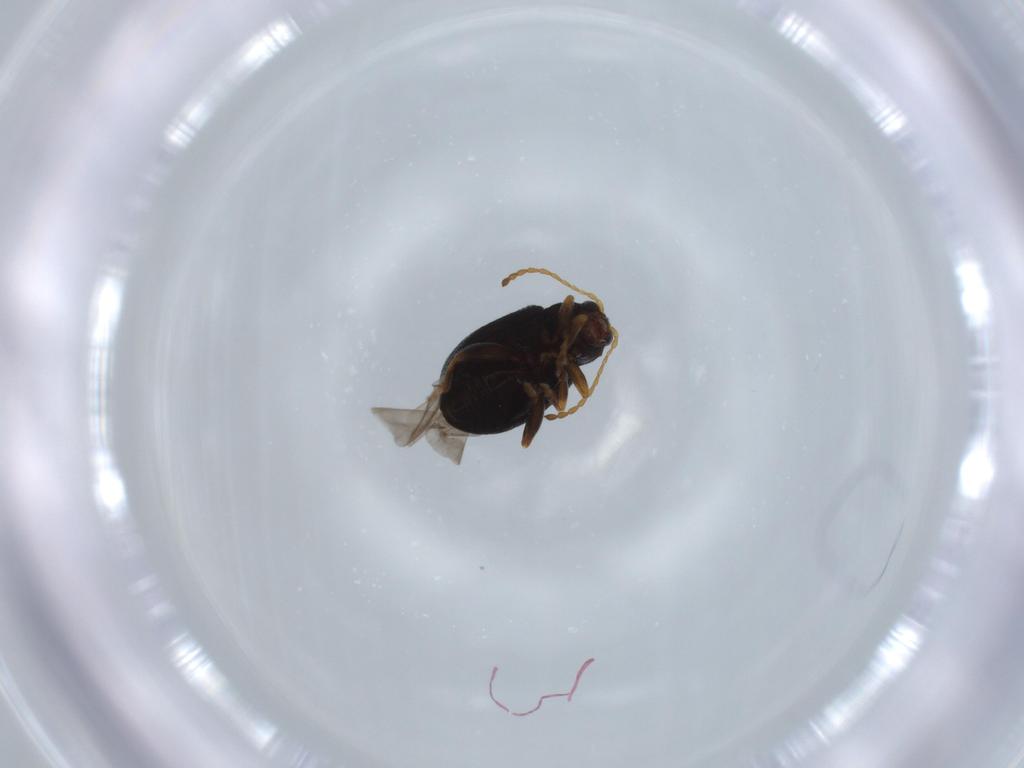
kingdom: Animalia
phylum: Arthropoda
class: Insecta
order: Coleoptera
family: Chrysomelidae
